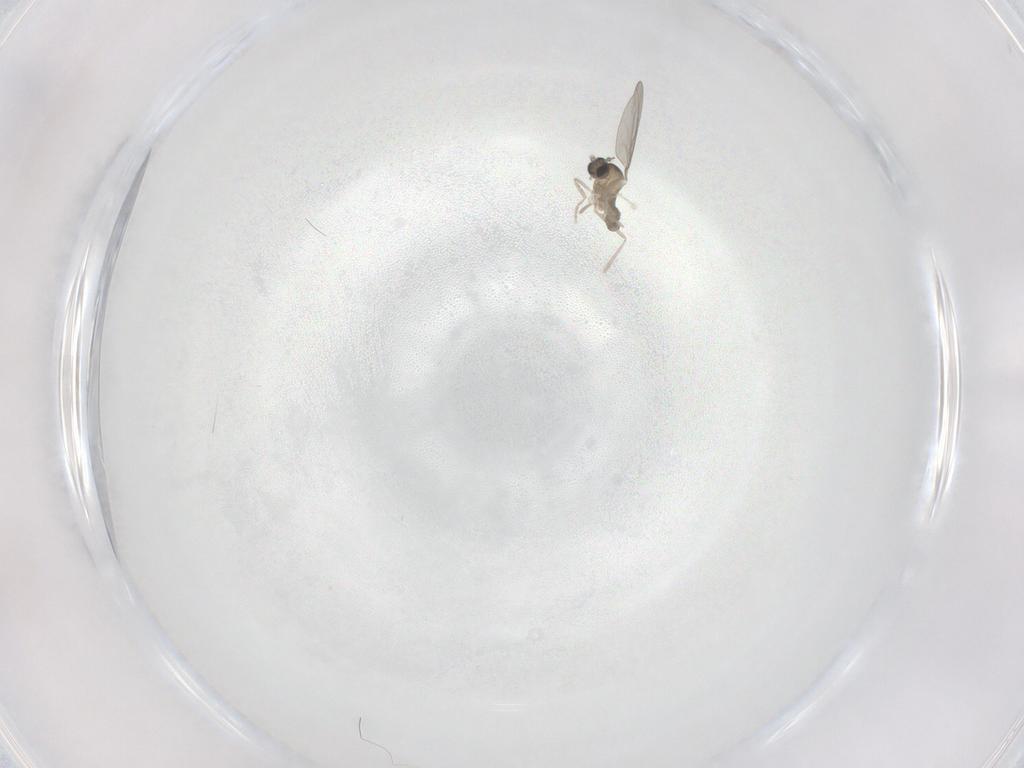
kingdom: Animalia
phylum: Arthropoda
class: Insecta
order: Diptera
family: Cecidomyiidae
